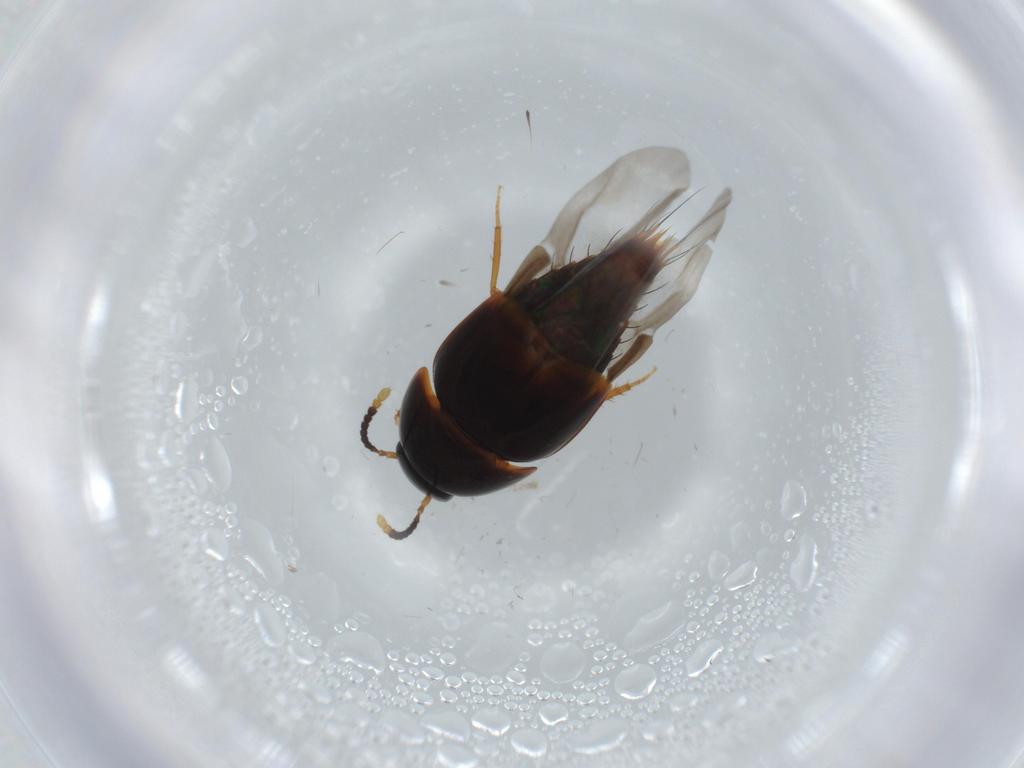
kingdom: Animalia
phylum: Arthropoda
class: Insecta
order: Coleoptera
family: Staphylinidae
